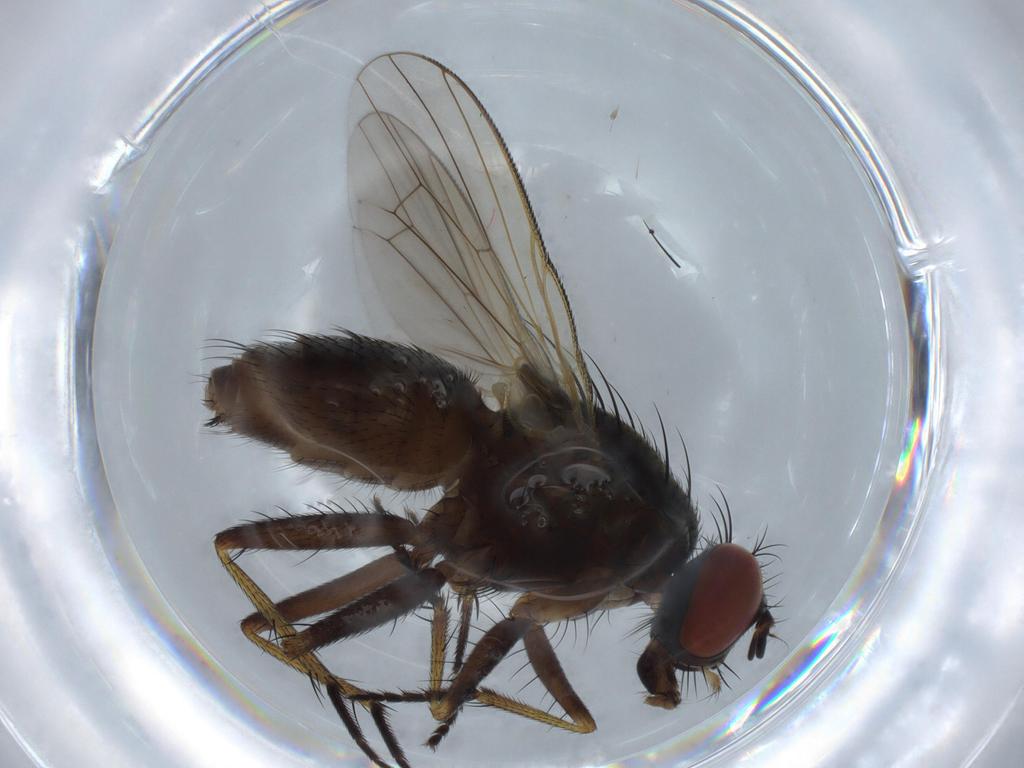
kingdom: Animalia
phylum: Arthropoda
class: Insecta
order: Diptera
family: Muscidae
